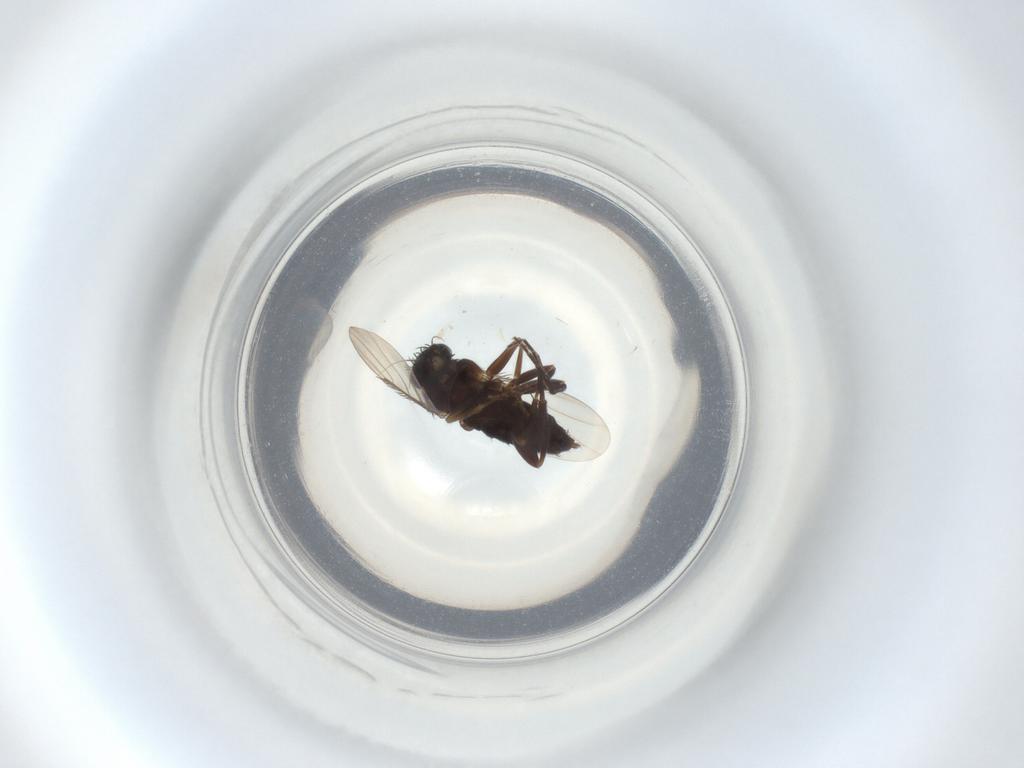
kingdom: Animalia
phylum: Arthropoda
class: Insecta
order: Diptera
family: Phoridae
